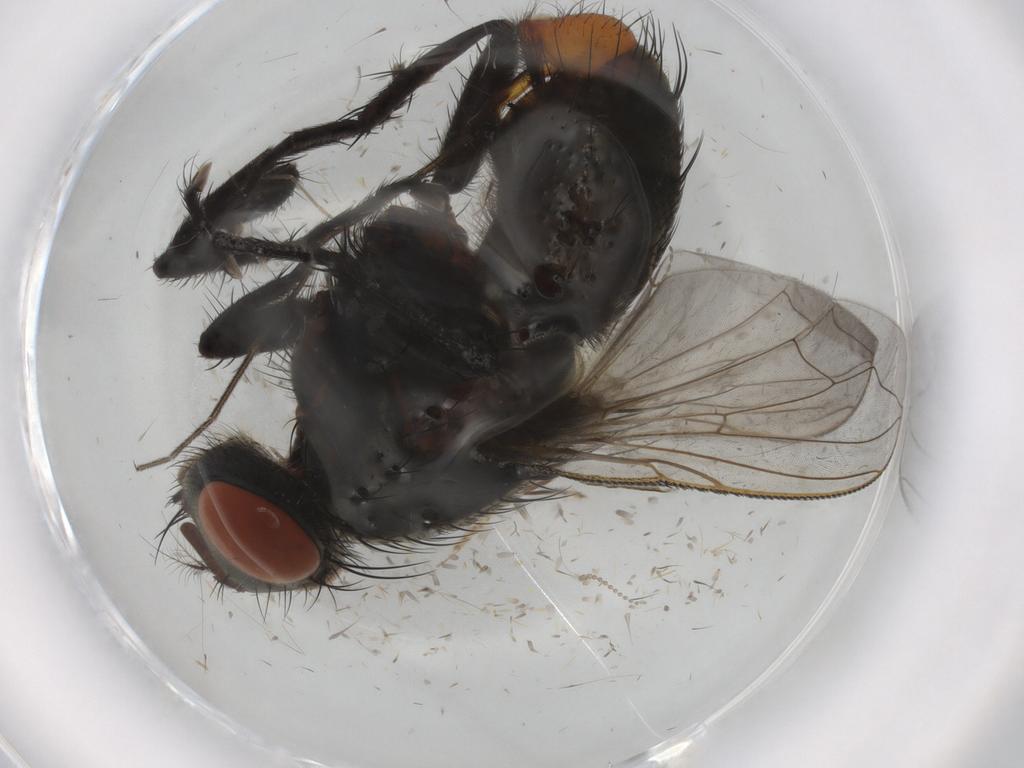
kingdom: Animalia
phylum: Arthropoda
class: Insecta
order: Diptera
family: Sarcophagidae
